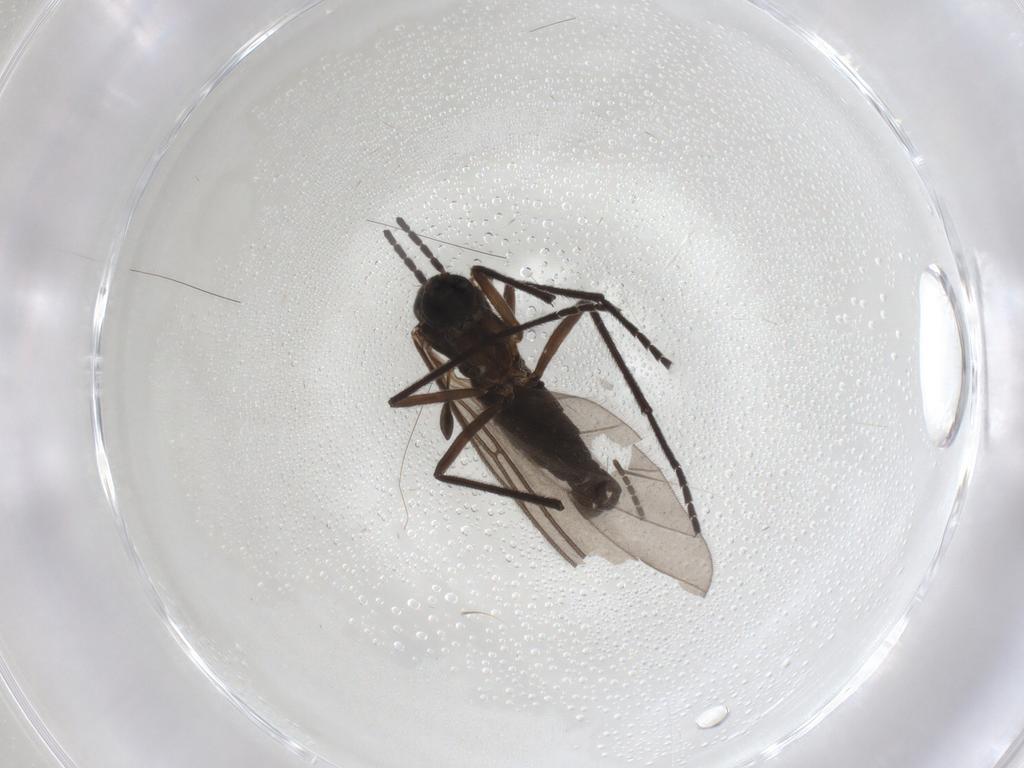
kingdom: Animalia
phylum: Arthropoda
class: Insecta
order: Diptera
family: Sciaridae
